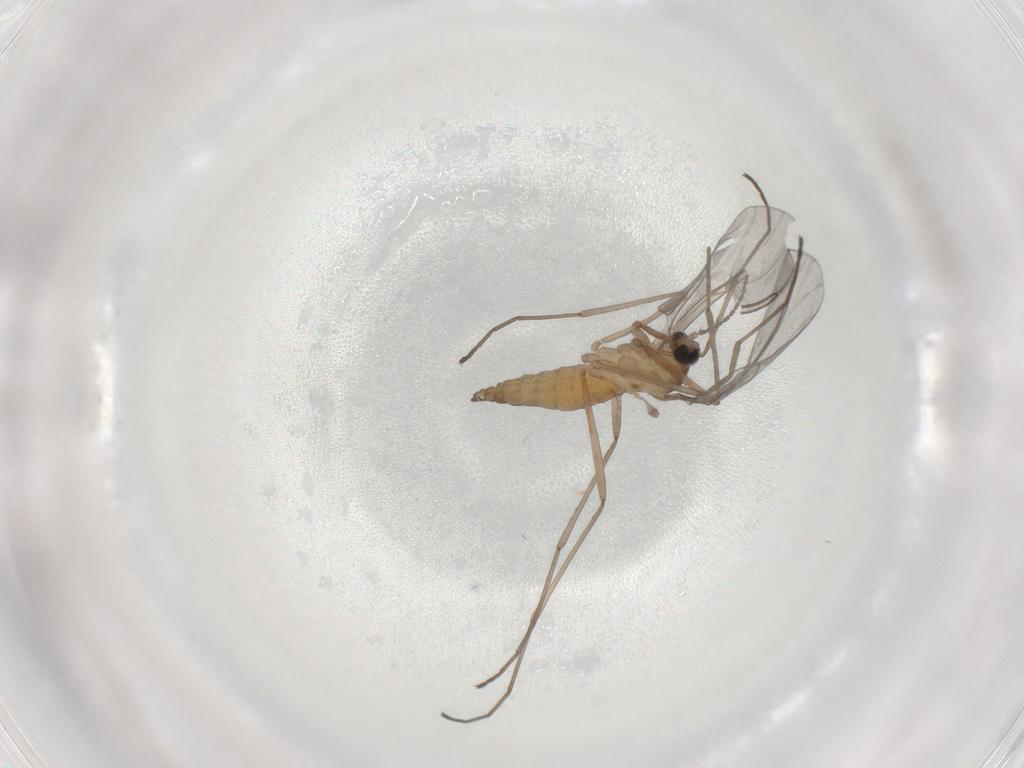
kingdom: Animalia
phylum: Arthropoda
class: Insecta
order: Diptera
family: Cecidomyiidae
